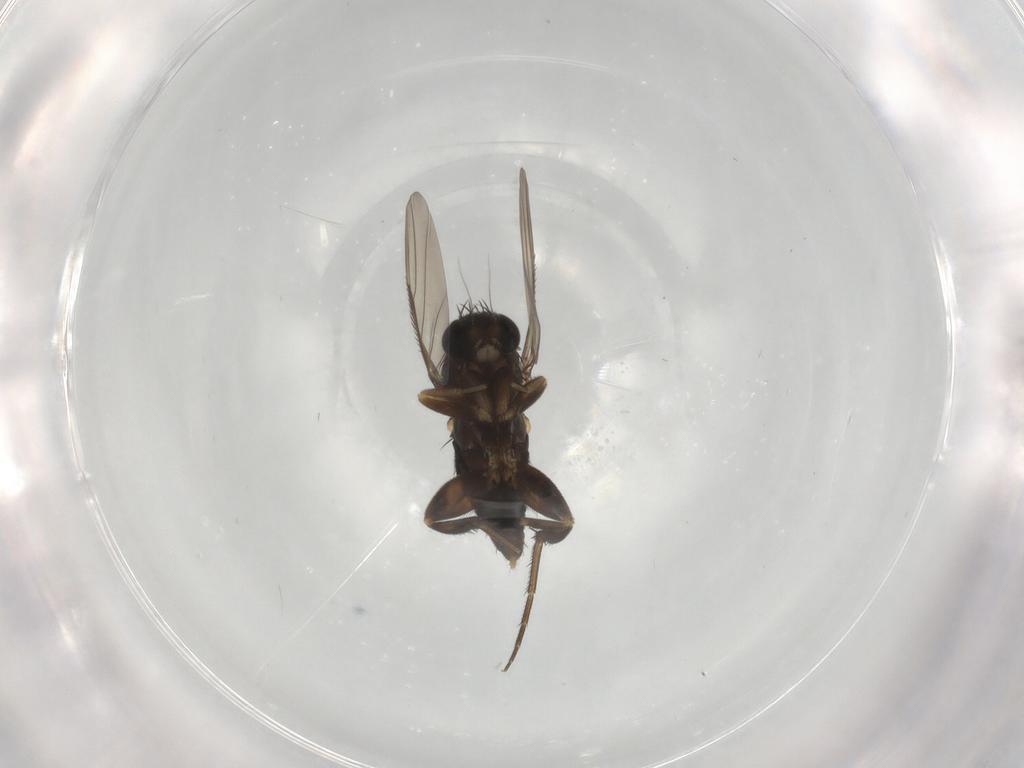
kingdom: Animalia
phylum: Arthropoda
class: Insecta
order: Diptera
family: Phoridae
